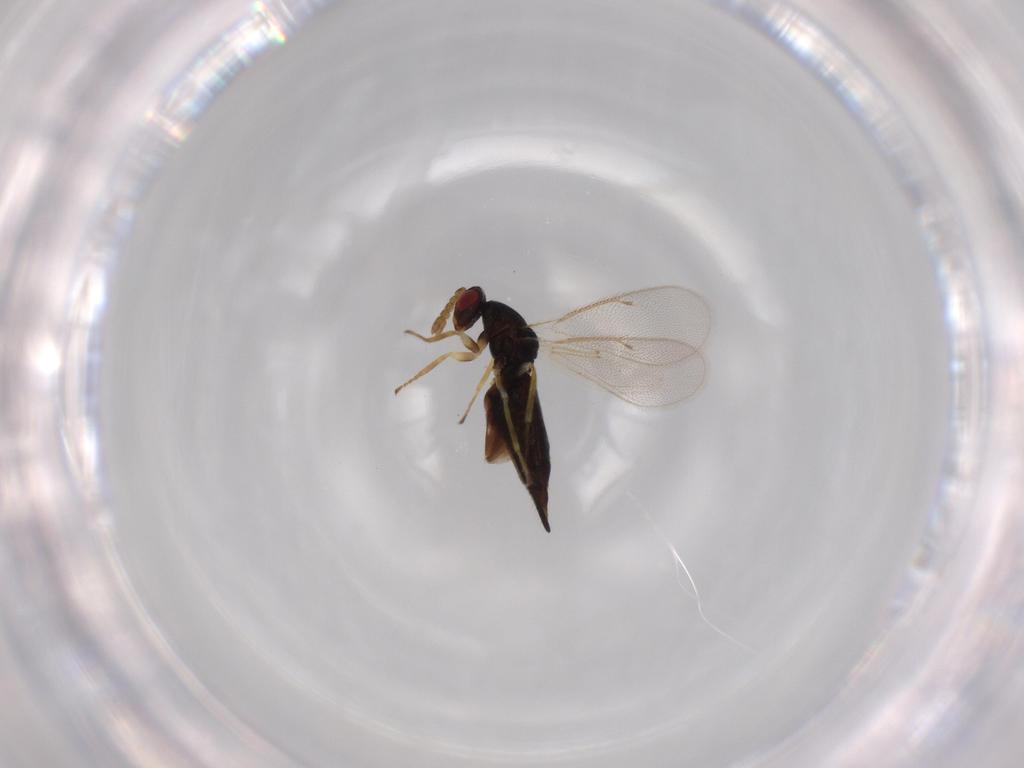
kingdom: Animalia
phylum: Arthropoda
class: Insecta
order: Hymenoptera
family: Eulophidae
